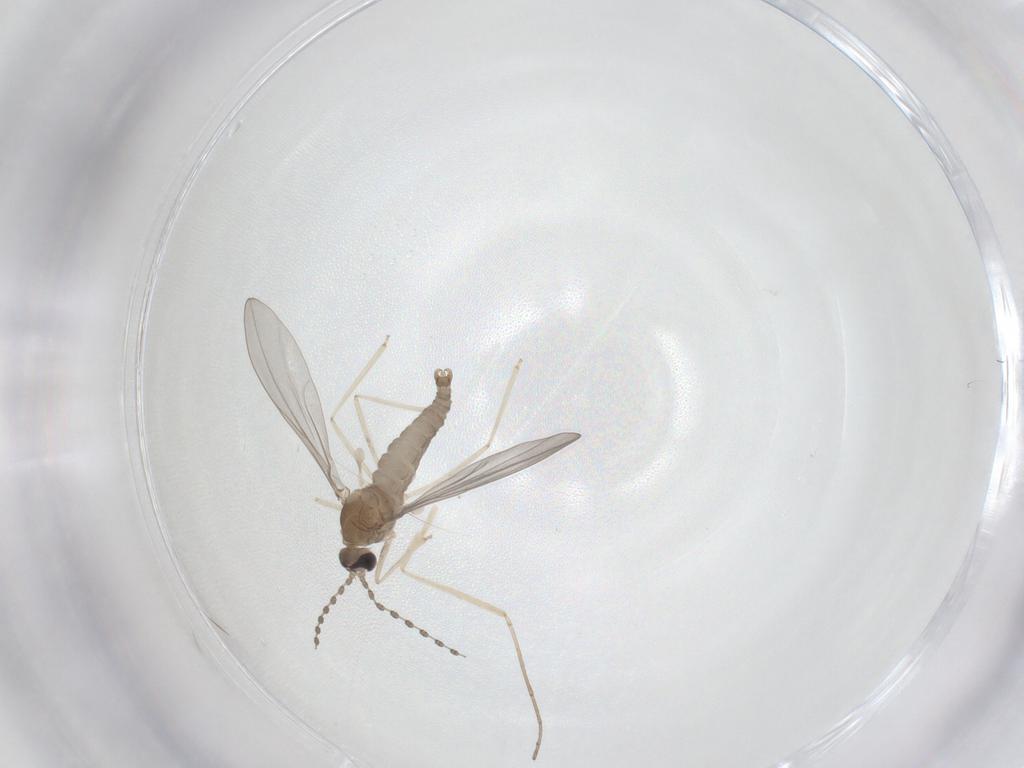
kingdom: Animalia
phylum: Arthropoda
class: Insecta
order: Diptera
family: Cecidomyiidae
